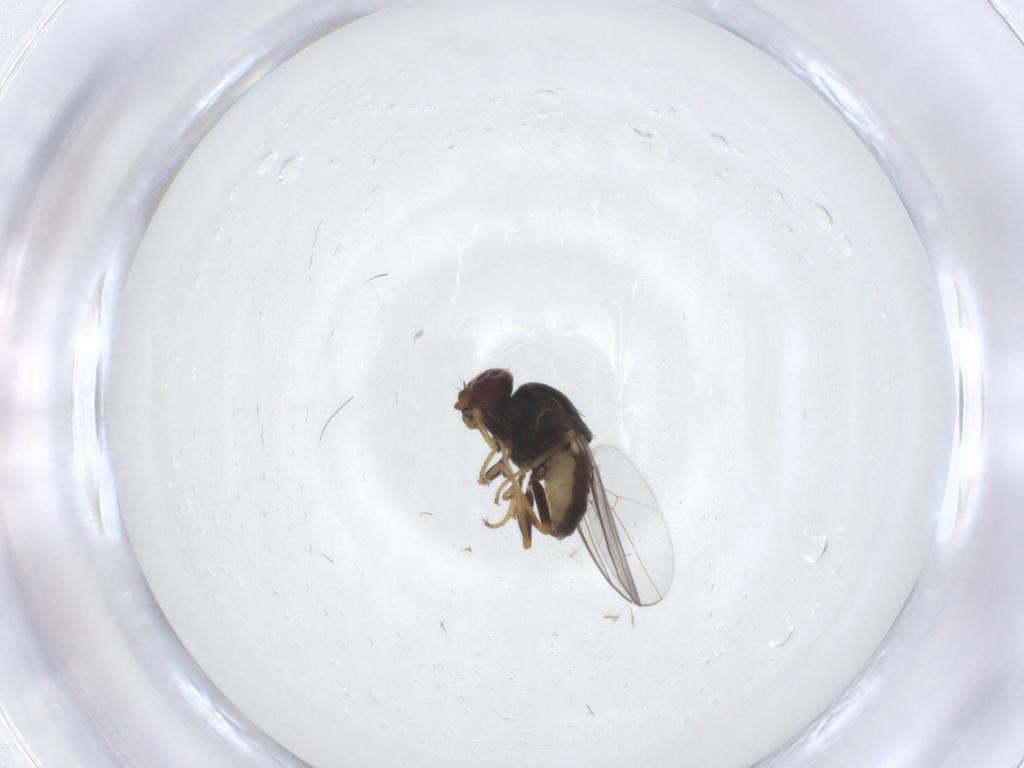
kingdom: Animalia
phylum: Arthropoda
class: Insecta
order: Diptera
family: Chloropidae
